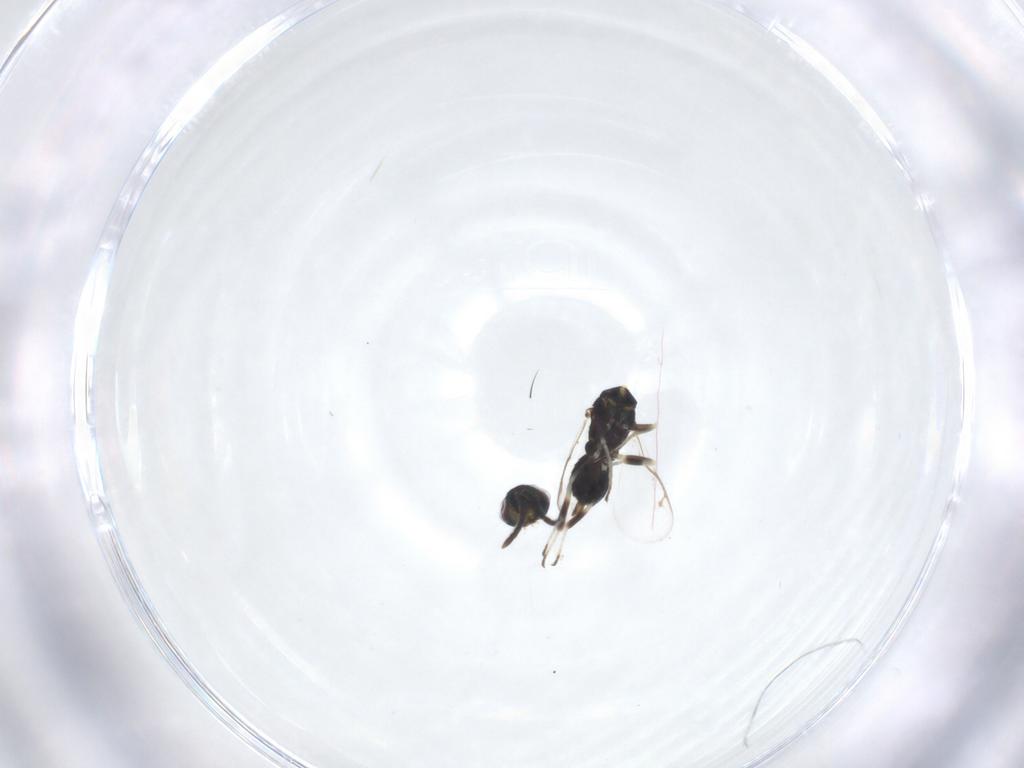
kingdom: Animalia
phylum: Arthropoda
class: Insecta
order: Hymenoptera
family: Eupelmidae
